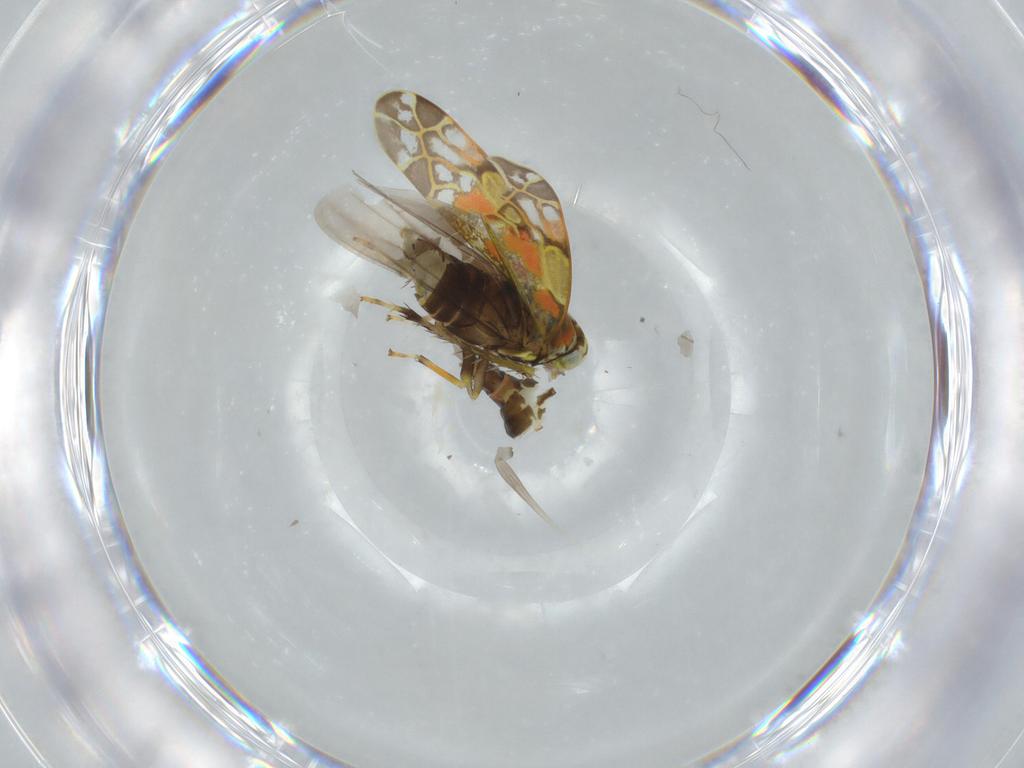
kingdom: Animalia
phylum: Arthropoda
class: Insecta
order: Hemiptera
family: Cicadellidae
